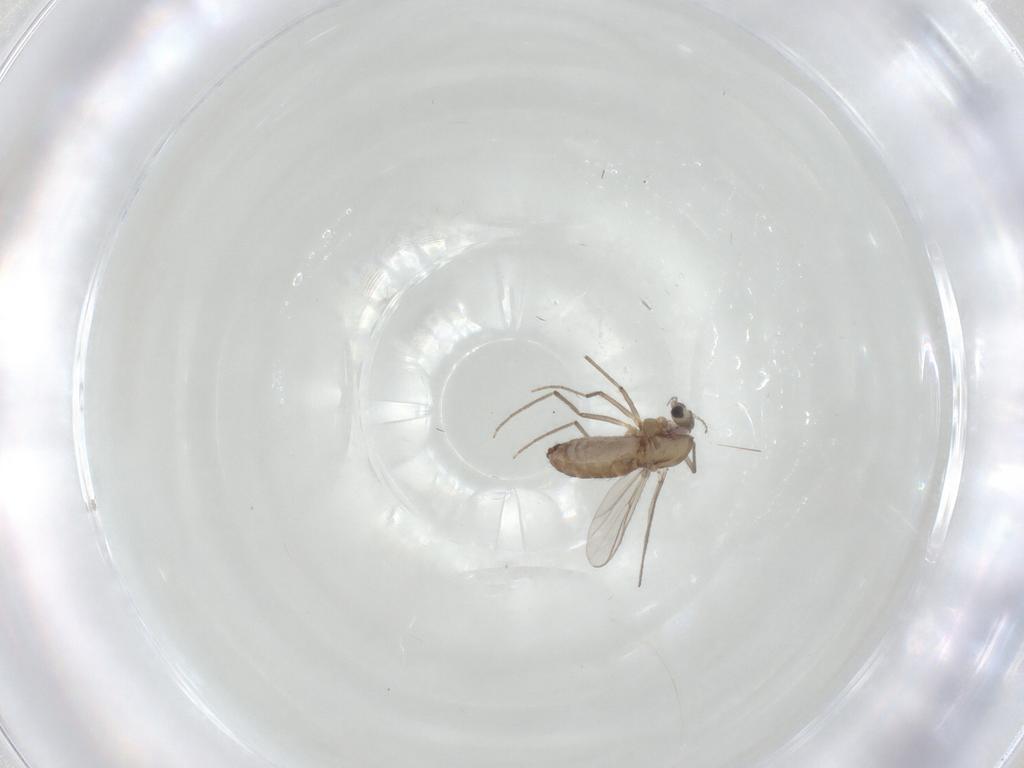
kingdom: Animalia
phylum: Arthropoda
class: Insecta
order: Diptera
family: Chironomidae
